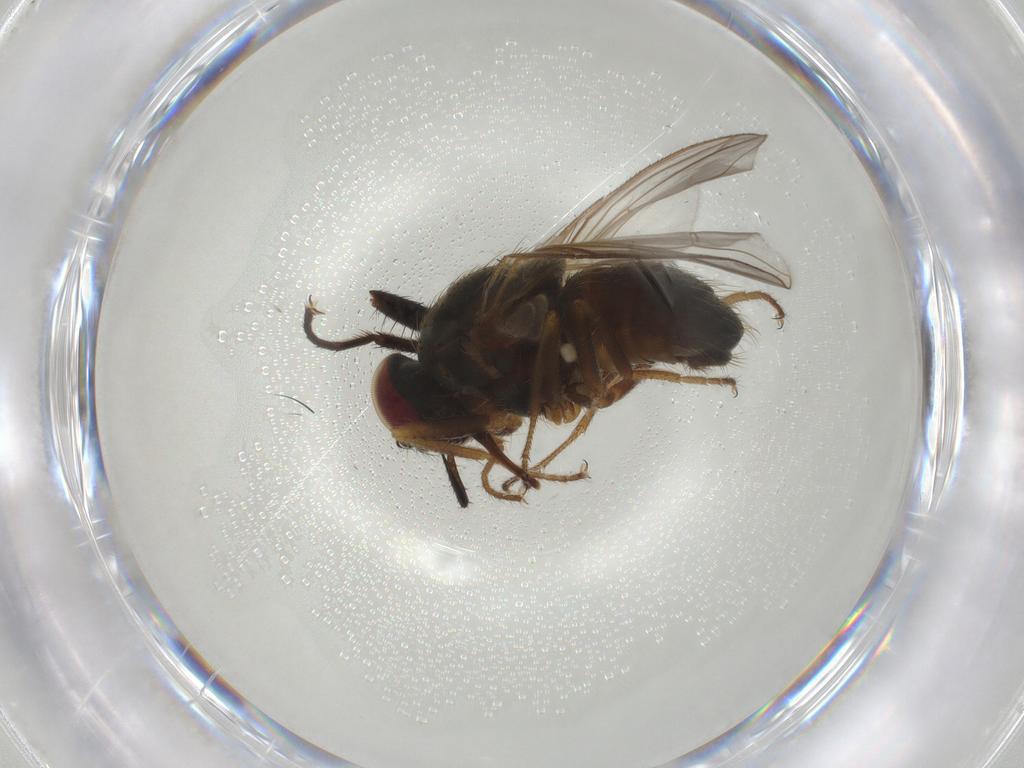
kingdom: Animalia
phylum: Arthropoda
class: Insecta
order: Diptera
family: Muscidae
